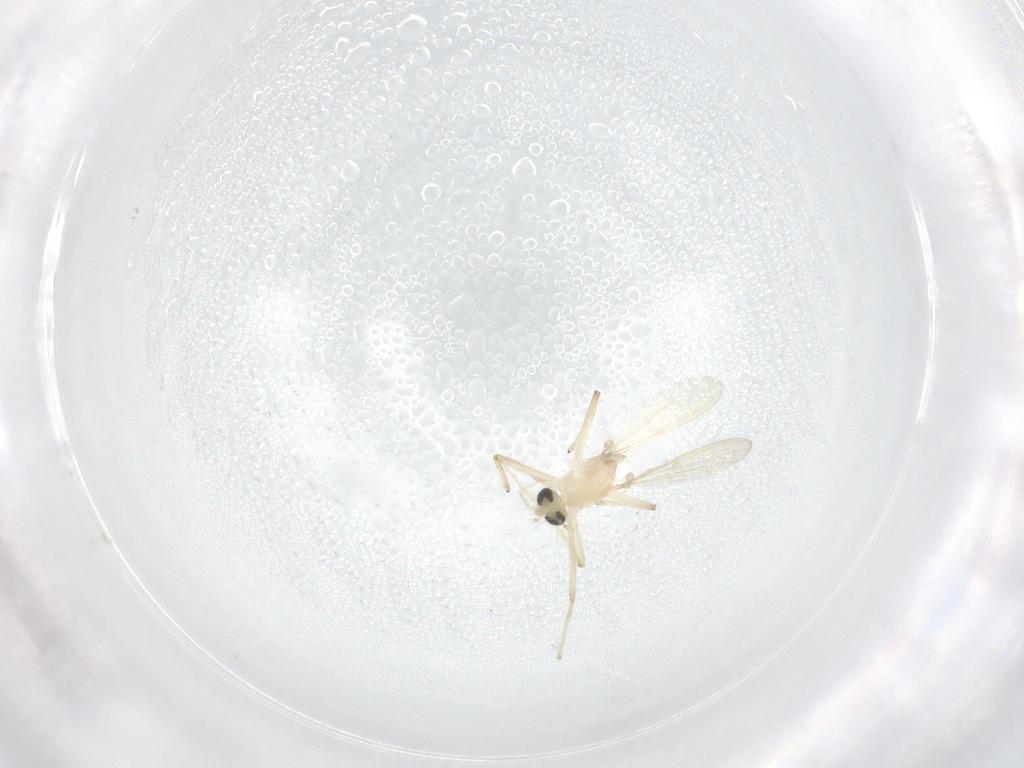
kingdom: Animalia
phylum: Arthropoda
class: Insecta
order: Diptera
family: Chironomidae
